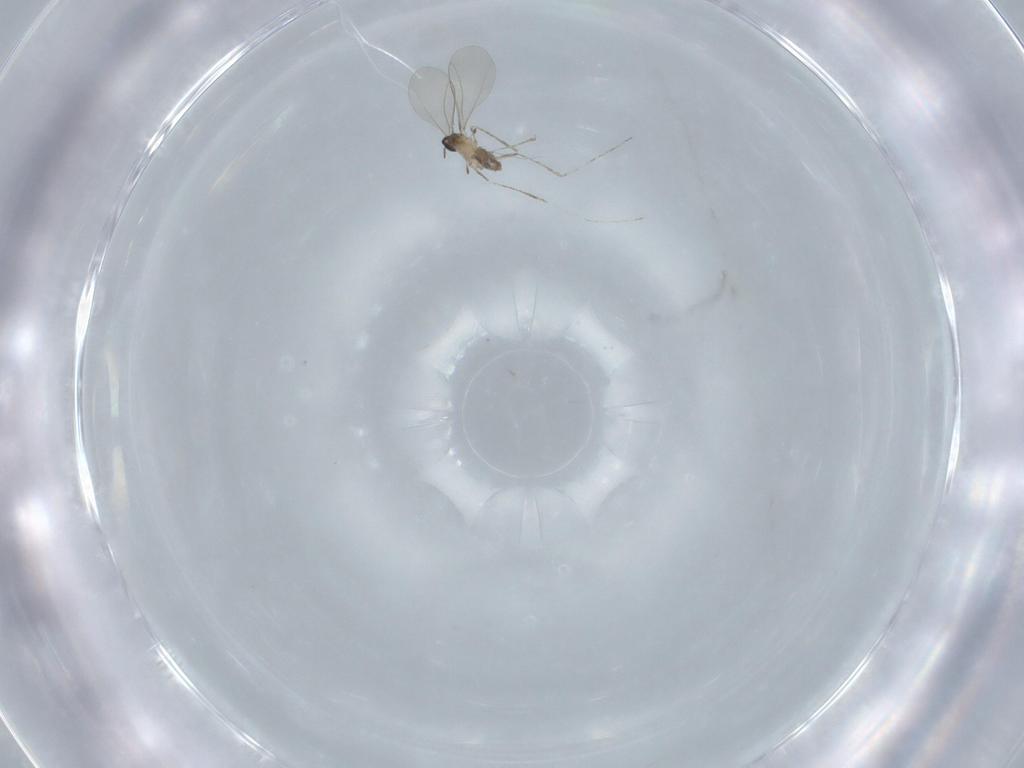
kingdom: Animalia
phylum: Arthropoda
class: Insecta
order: Diptera
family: Cecidomyiidae
